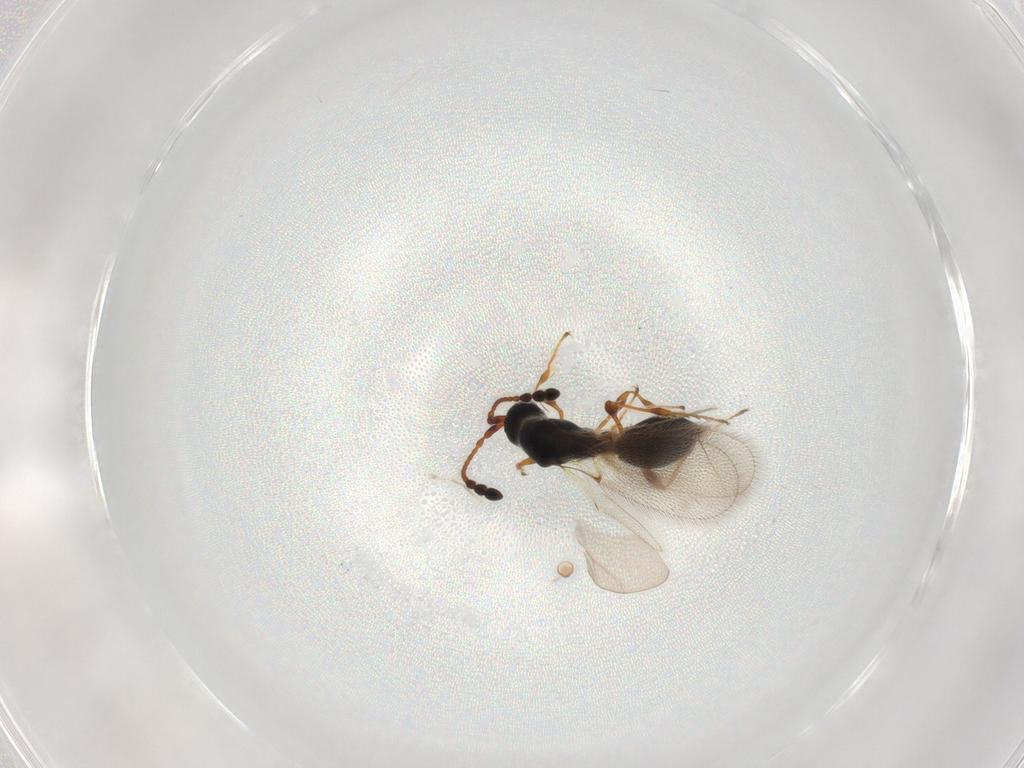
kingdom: Animalia
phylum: Arthropoda
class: Insecta
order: Hymenoptera
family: Diapriidae
